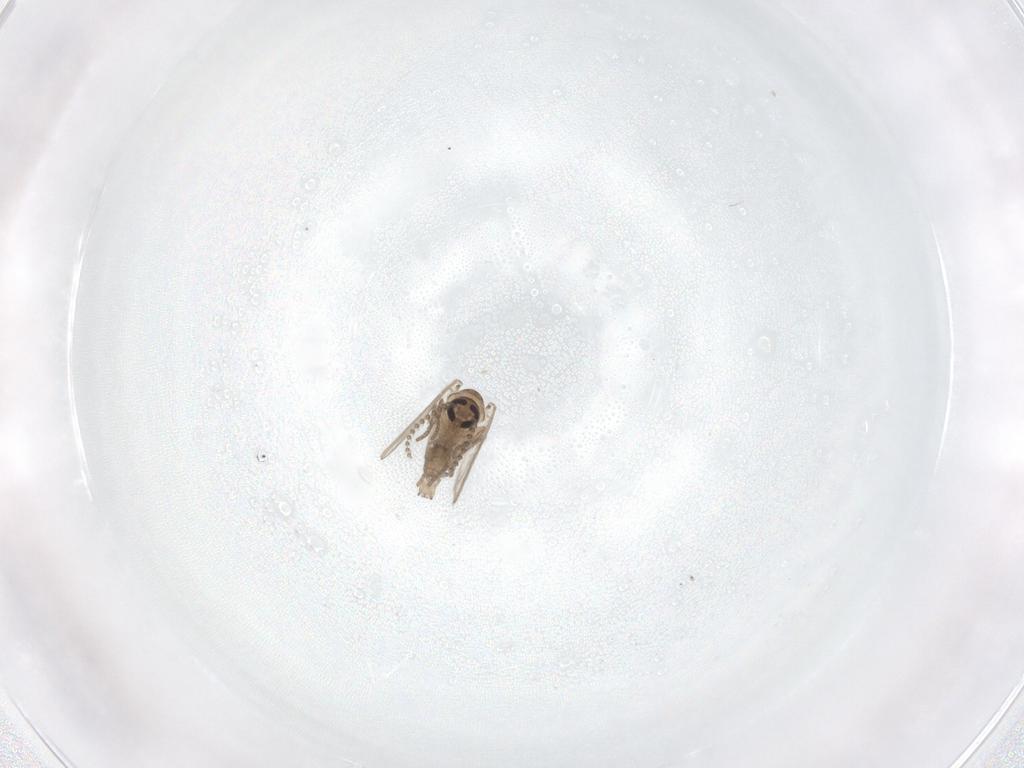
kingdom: Animalia
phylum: Arthropoda
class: Insecta
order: Diptera
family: Psychodidae
